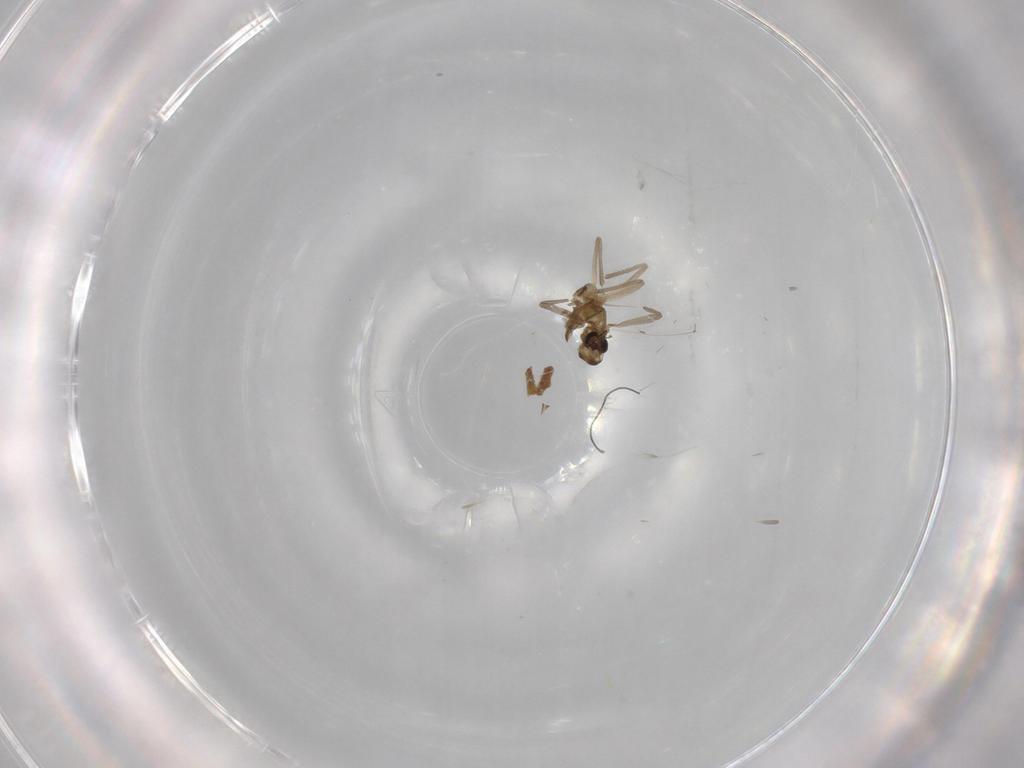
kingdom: Animalia
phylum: Arthropoda
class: Insecta
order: Diptera
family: Chironomidae
